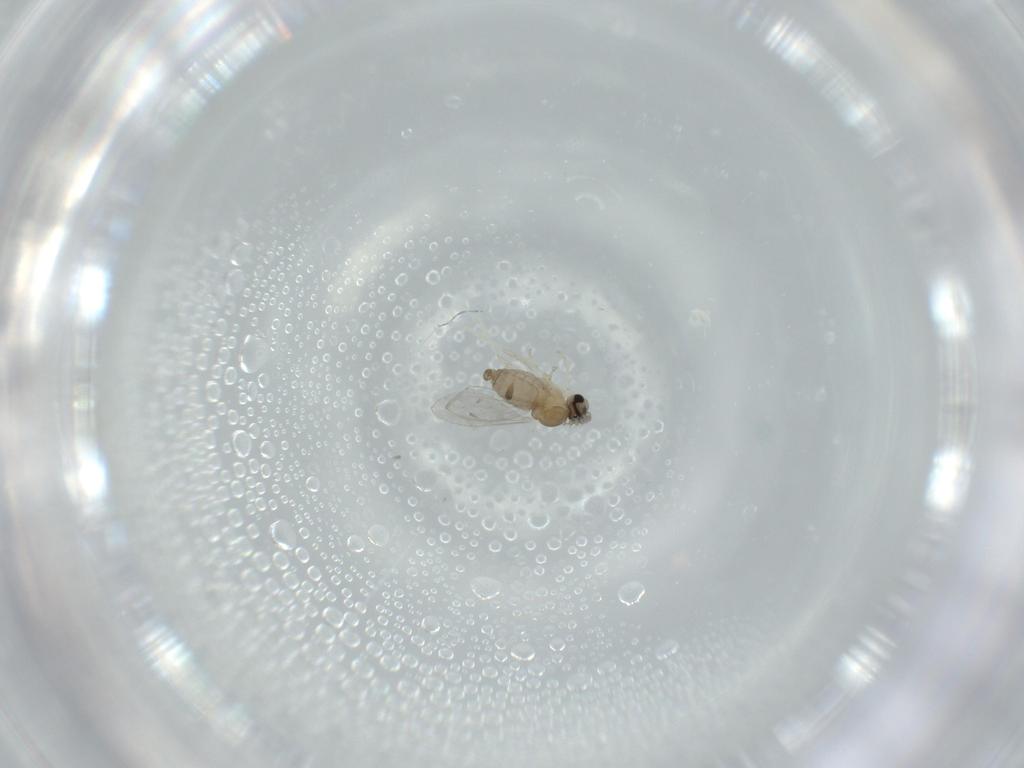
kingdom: Animalia
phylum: Arthropoda
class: Insecta
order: Diptera
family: Cecidomyiidae
